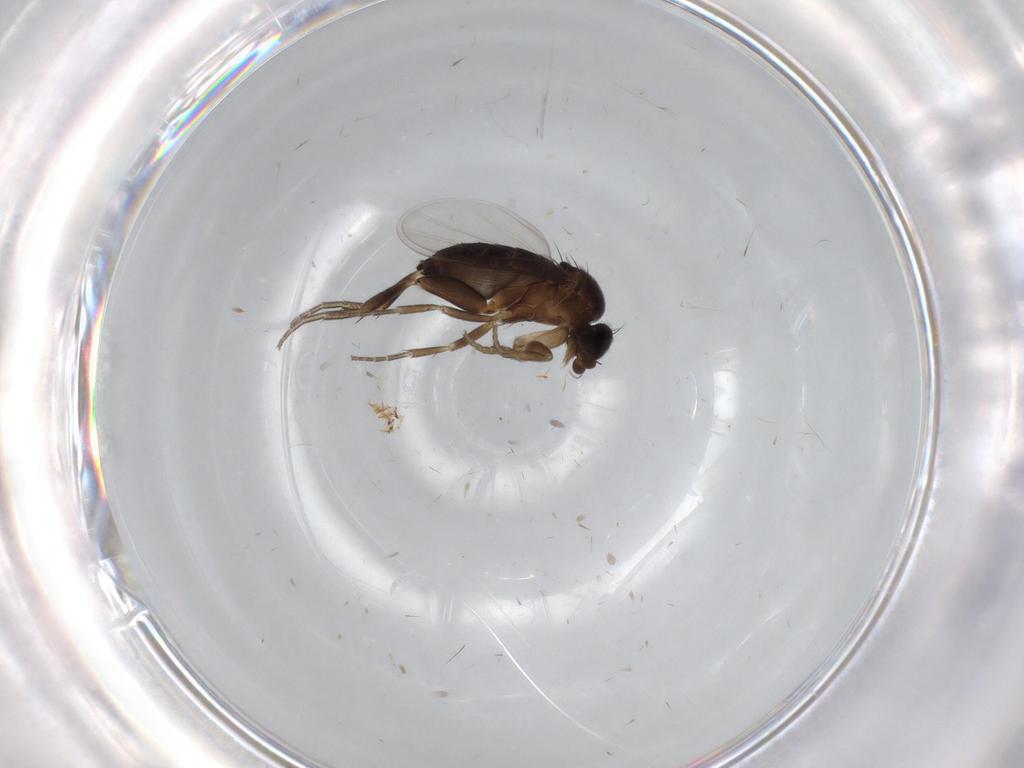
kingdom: Animalia
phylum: Arthropoda
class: Insecta
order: Diptera
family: Phoridae
